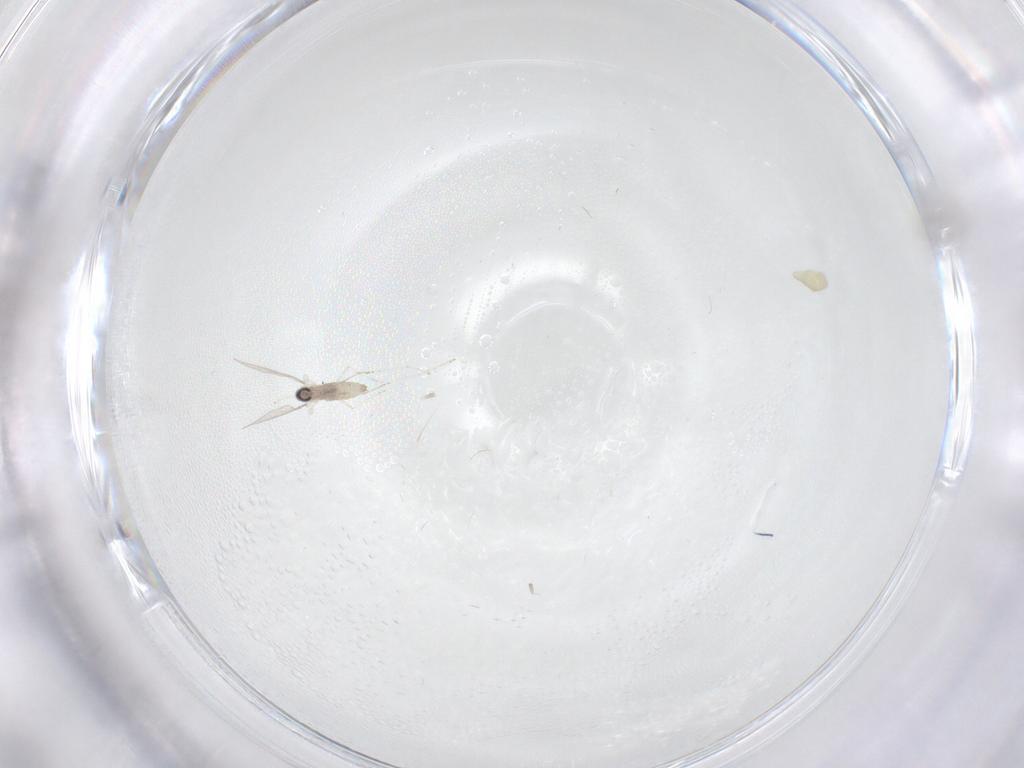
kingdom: Animalia
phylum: Arthropoda
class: Insecta
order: Diptera
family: Cecidomyiidae
